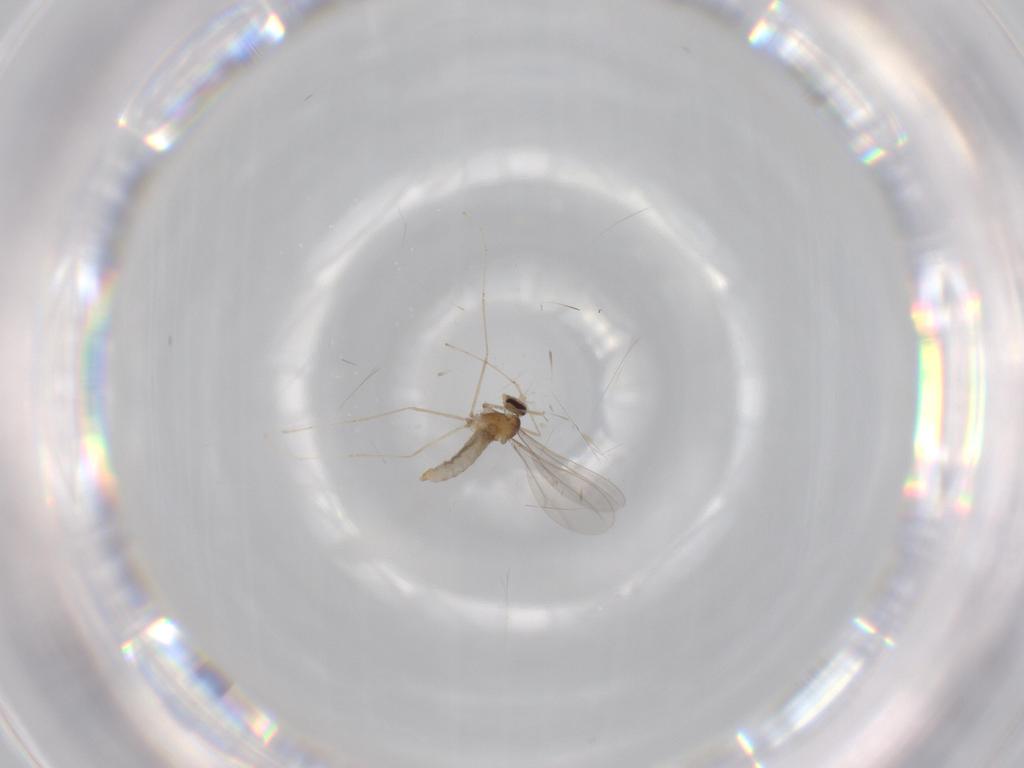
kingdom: Animalia
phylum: Arthropoda
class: Insecta
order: Diptera
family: Cecidomyiidae
